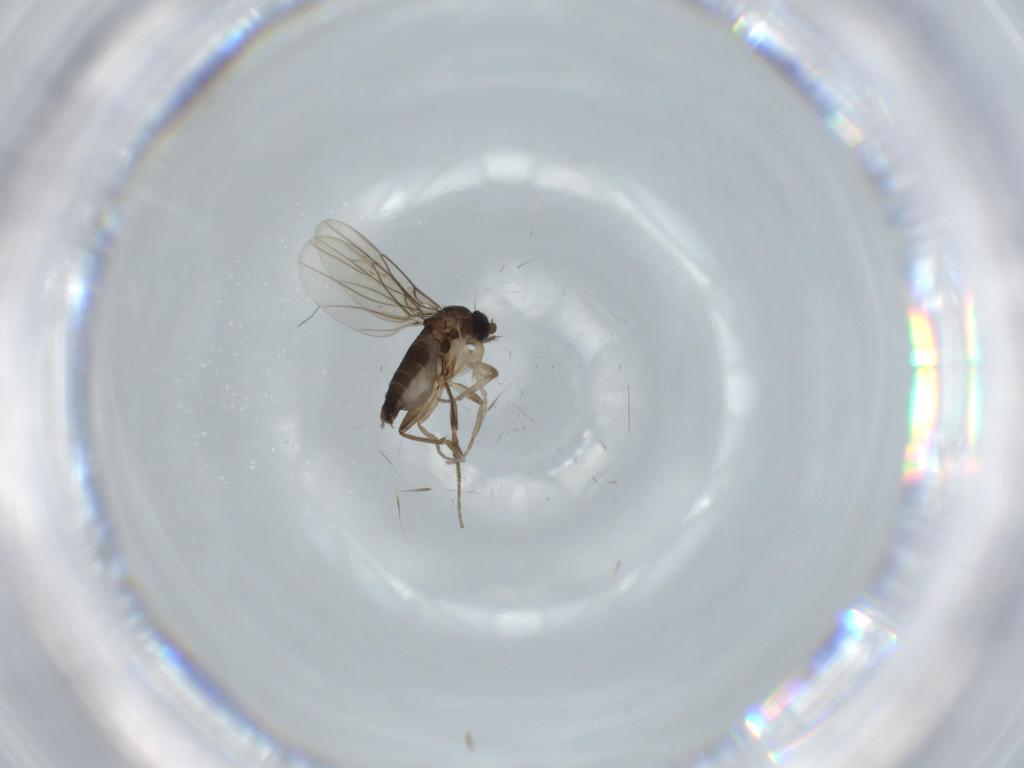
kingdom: Animalia
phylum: Arthropoda
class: Insecta
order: Diptera
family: Phoridae
